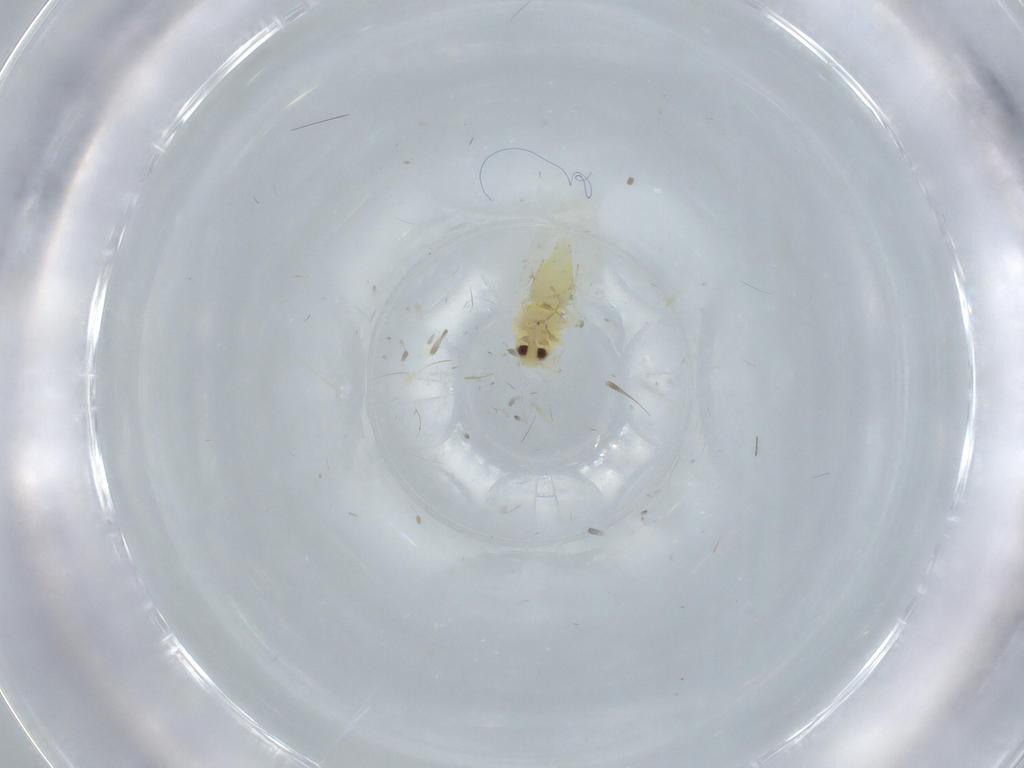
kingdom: Animalia
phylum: Arthropoda
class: Insecta
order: Diptera
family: Chironomidae
